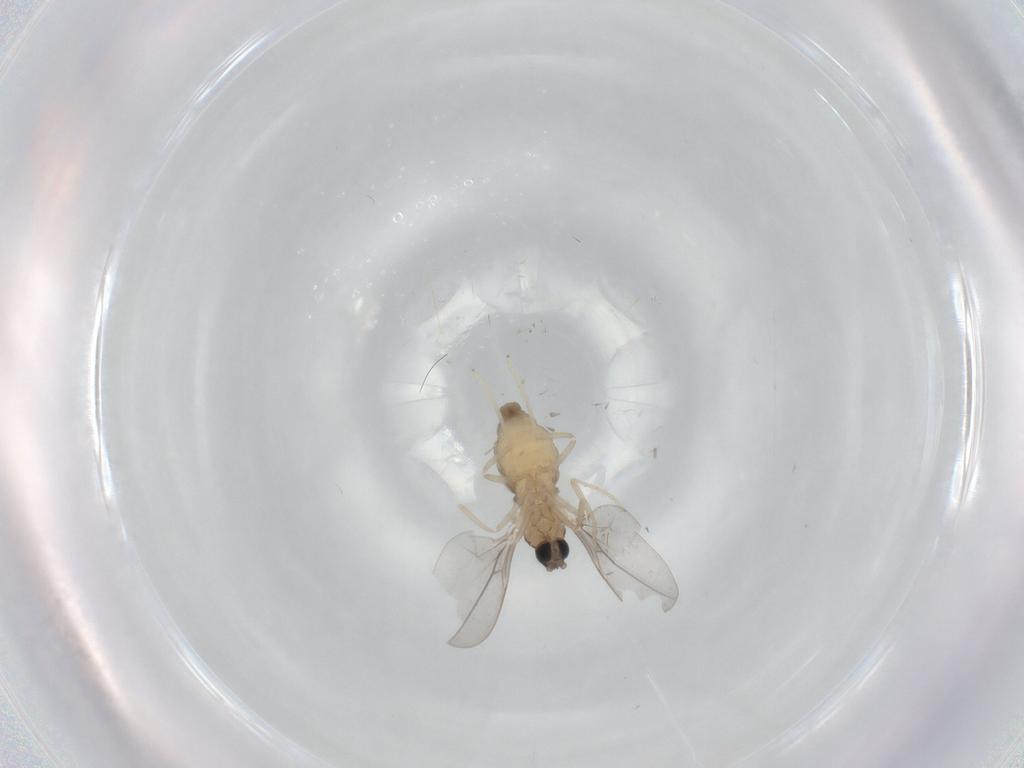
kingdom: Animalia
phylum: Arthropoda
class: Insecta
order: Diptera
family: Cecidomyiidae
